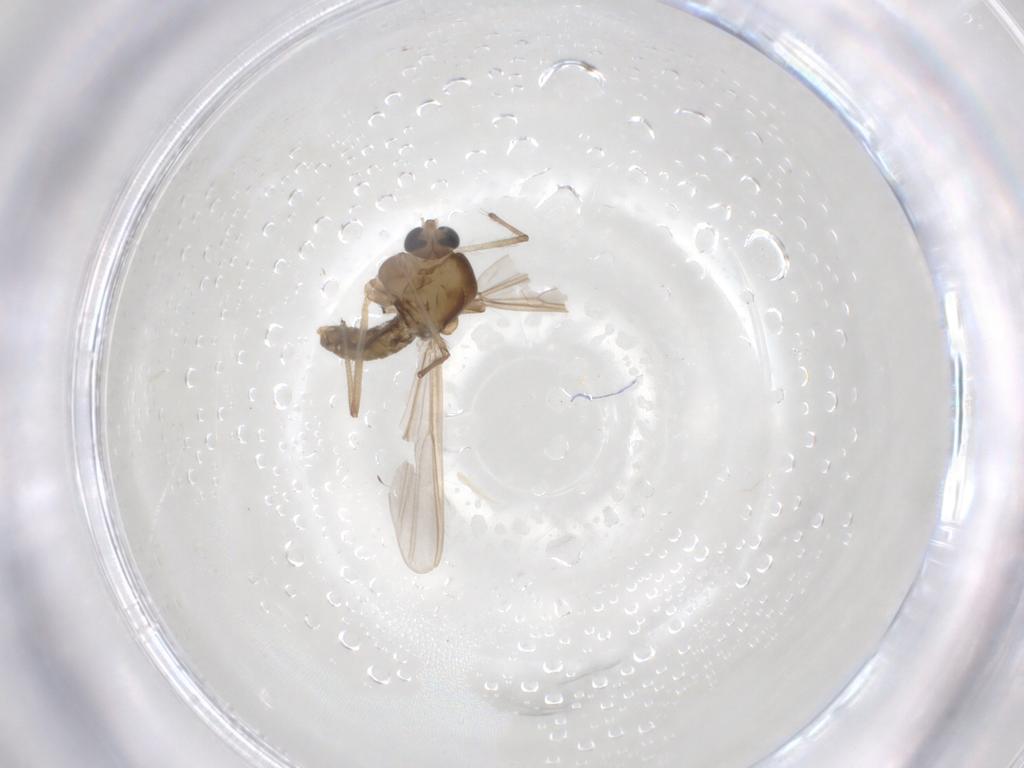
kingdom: Animalia
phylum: Arthropoda
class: Insecta
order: Diptera
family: Chironomidae
